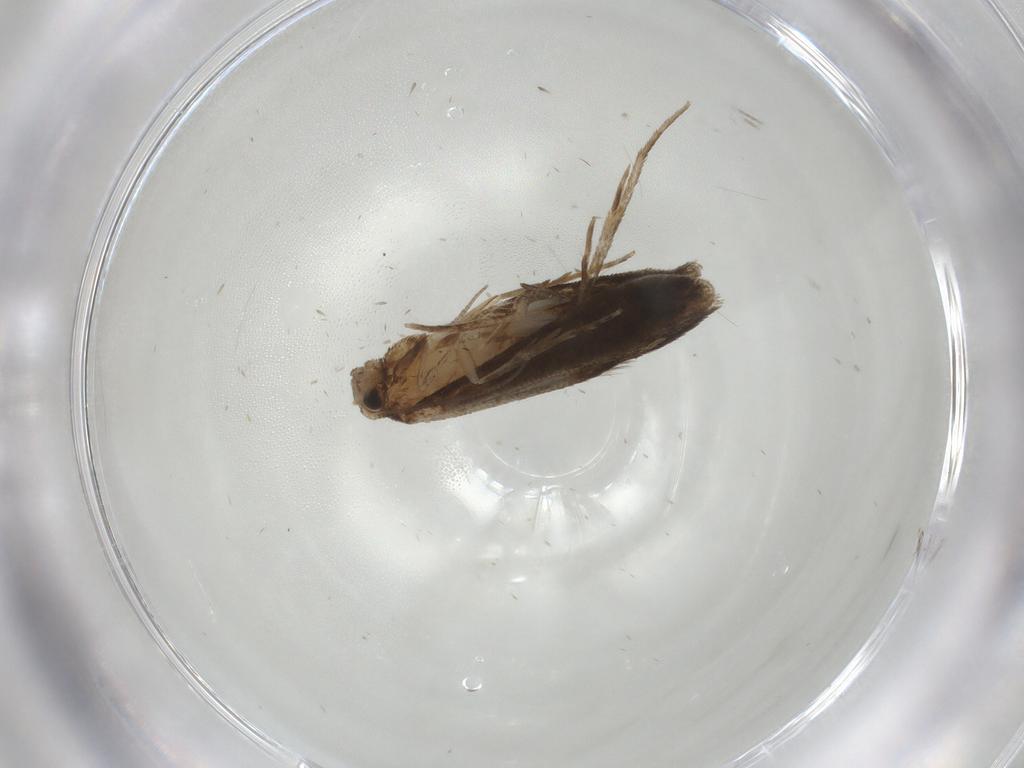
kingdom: Animalia
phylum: Arthropoda
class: Insecta
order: Lepidoptera
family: Tineidae
